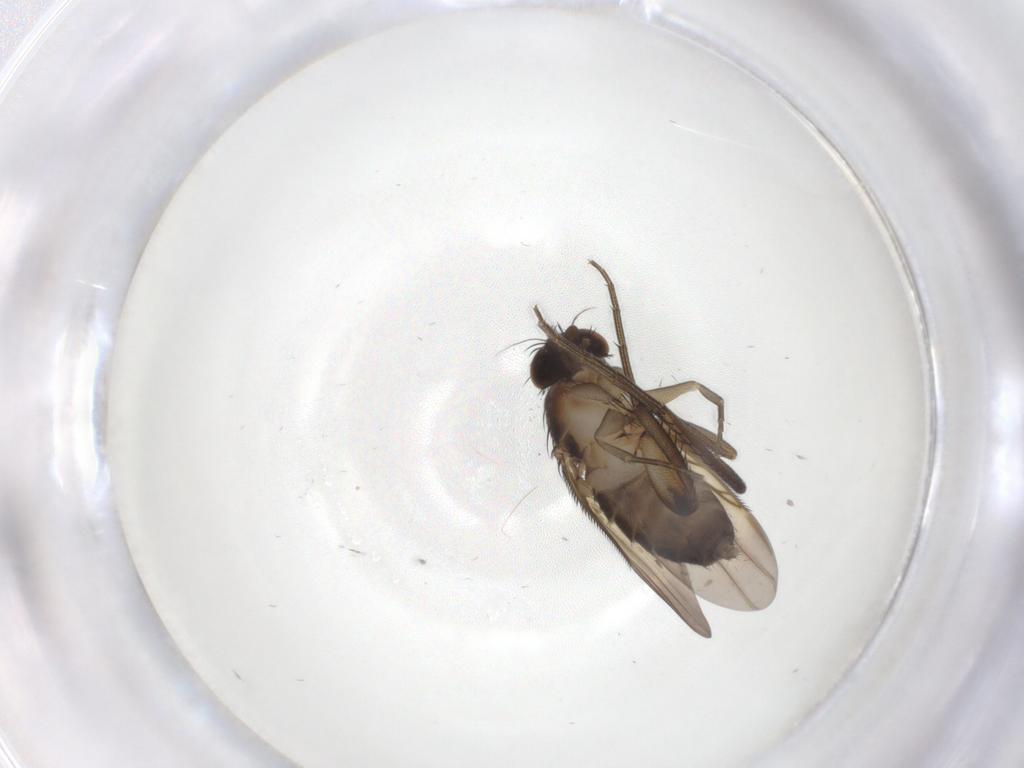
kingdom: Animalia
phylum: Arthropoda
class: Insecta
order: Diptera
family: Phoridae
